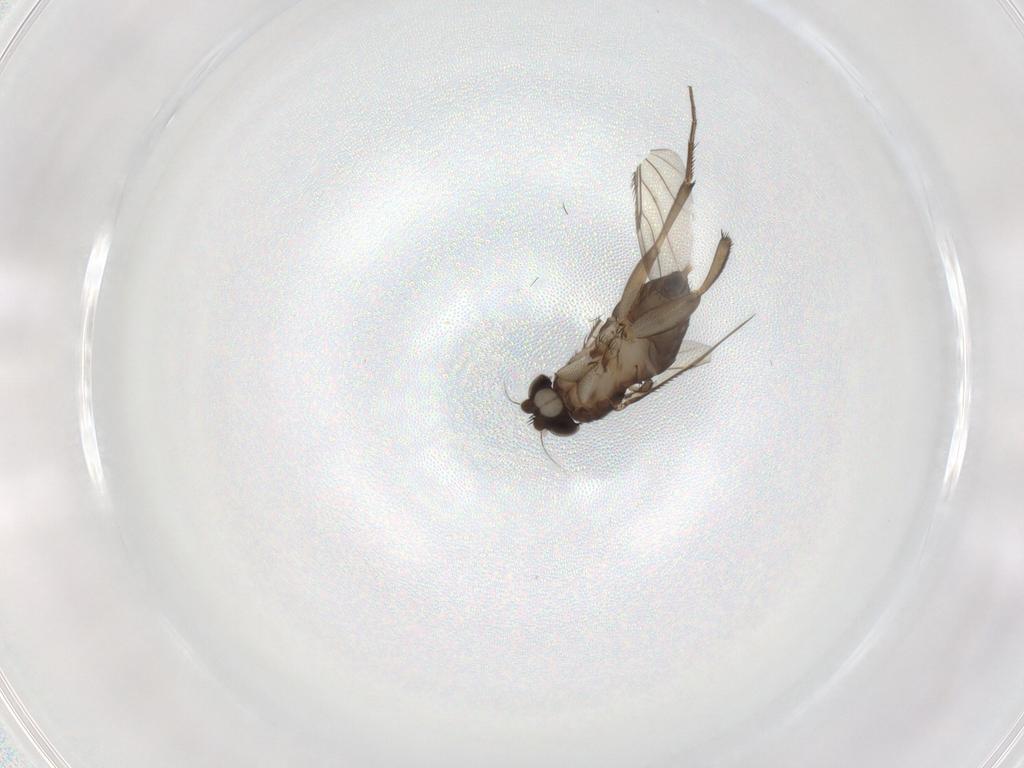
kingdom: Animalia
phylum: Arthropoda
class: Insecta
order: Diptera
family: Phoridae
